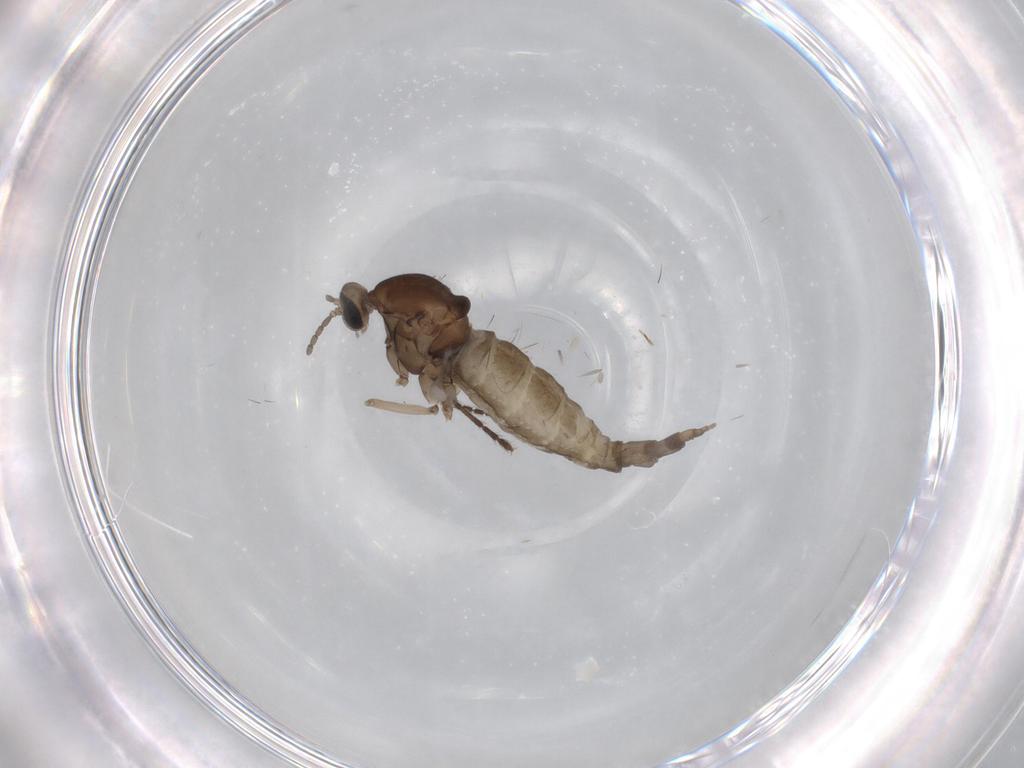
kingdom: Animalia
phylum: Arthropoda
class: Insecta
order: Diptera
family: Cecidomyiidae
